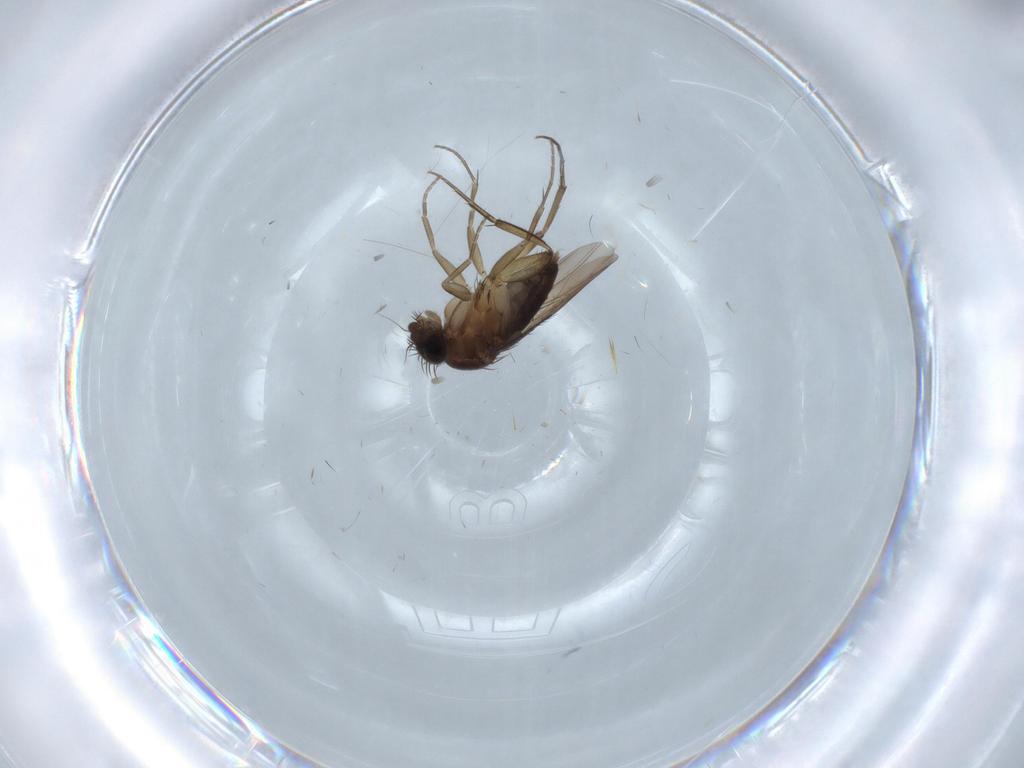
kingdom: Animalia
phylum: Arthropoda
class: Insecta
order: Diptera
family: Phoridae
